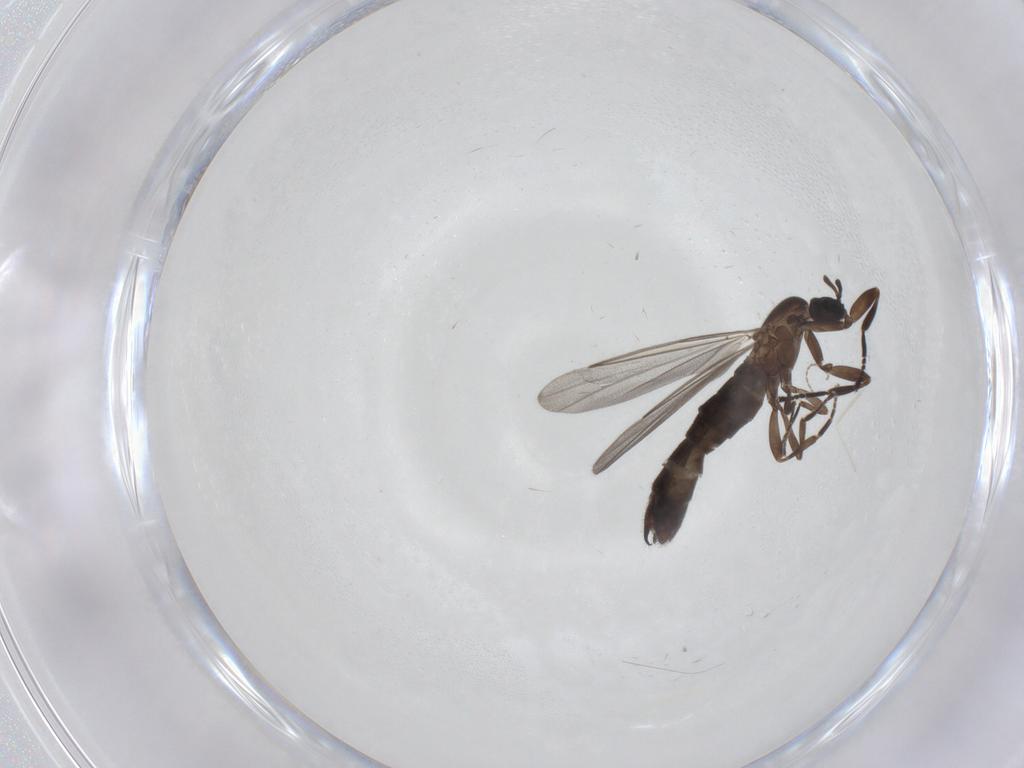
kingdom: Animalia
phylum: Arthropoda
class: Insecta
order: Diptera
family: Scatopsidae
